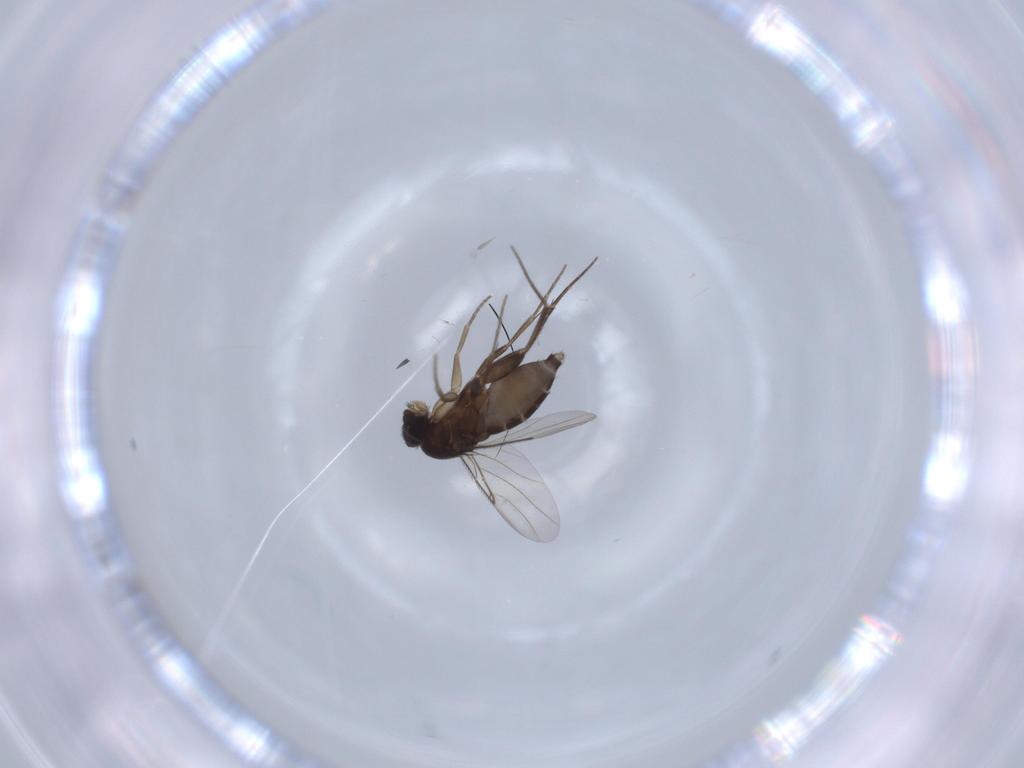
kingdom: Animalia
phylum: Arthropoda
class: Insecta
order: Diptera
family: Phoridae
